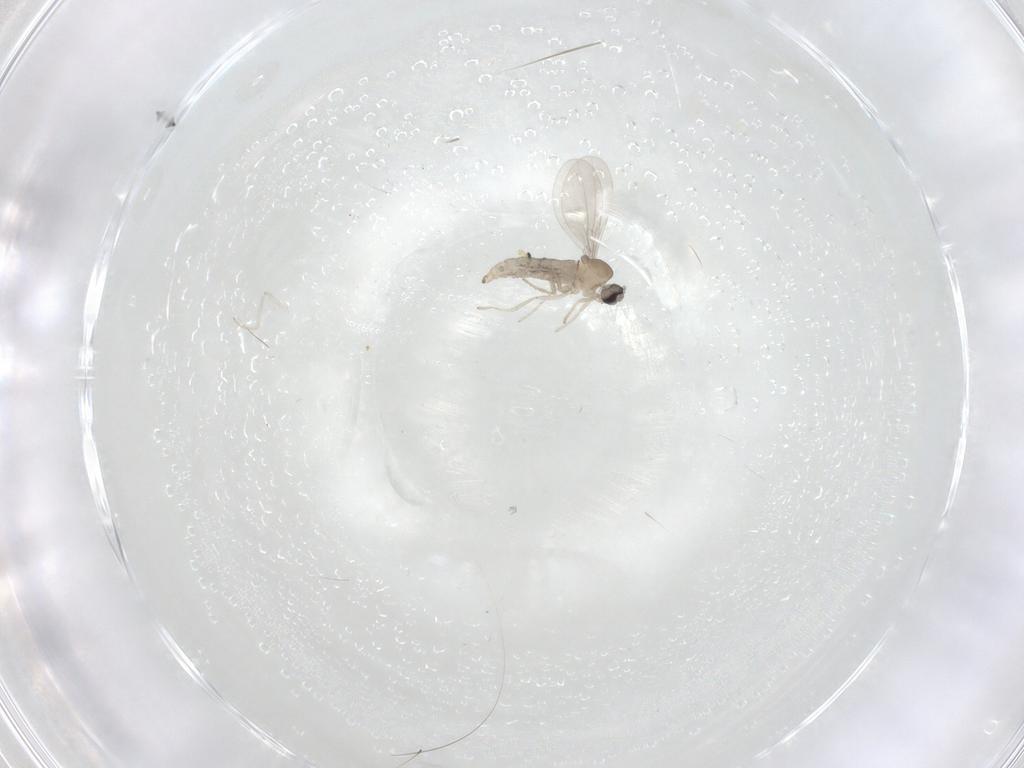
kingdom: Animalia
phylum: Arthropoda
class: Insecta
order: Diptera
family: Cecidomyiidae
